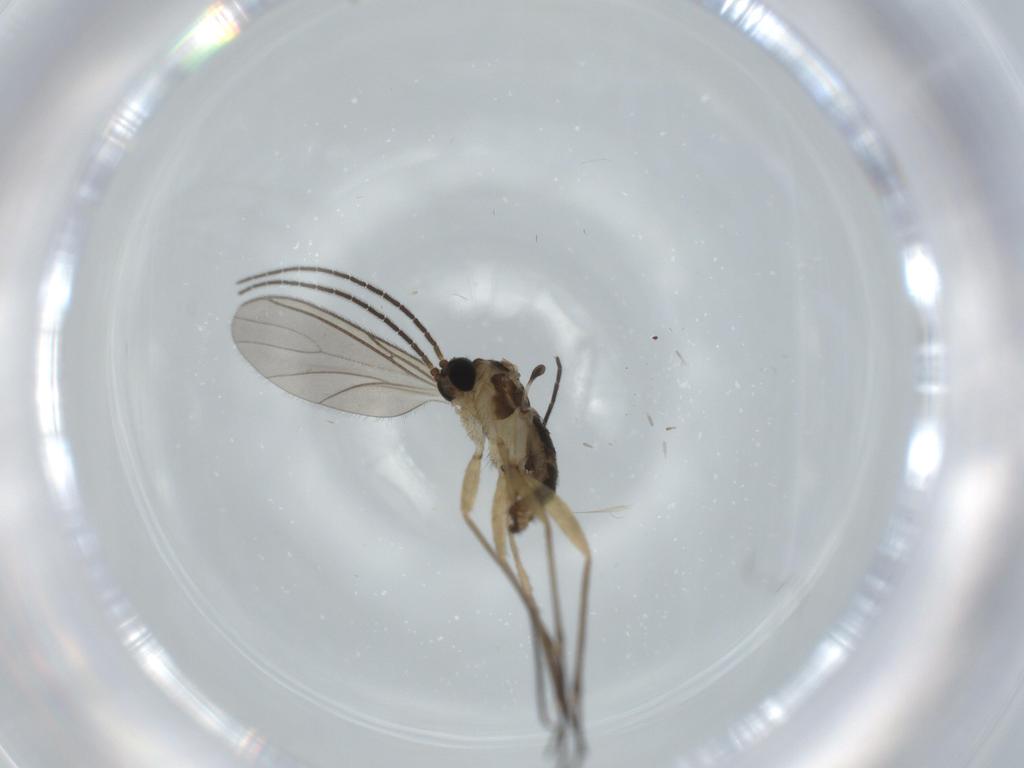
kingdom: Animalia
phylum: Arthropoda
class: Insecta
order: Diptera
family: Sciaridae
